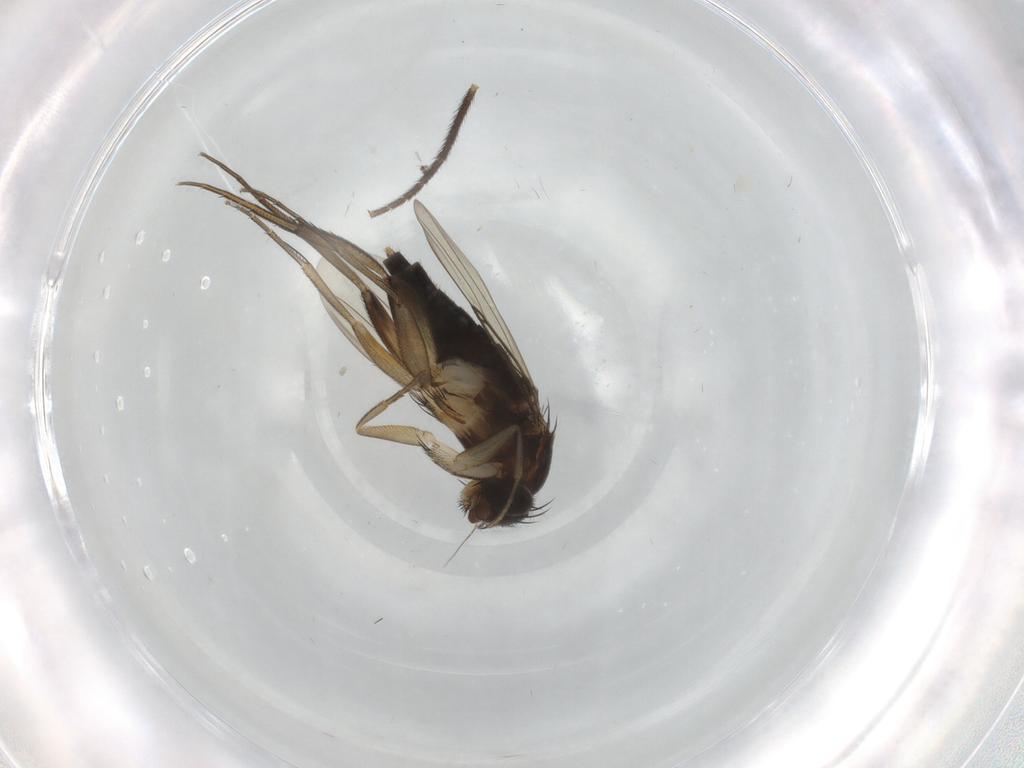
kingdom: Animalia
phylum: Arthropoda
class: Insecta
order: Diptera
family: Phoridae
